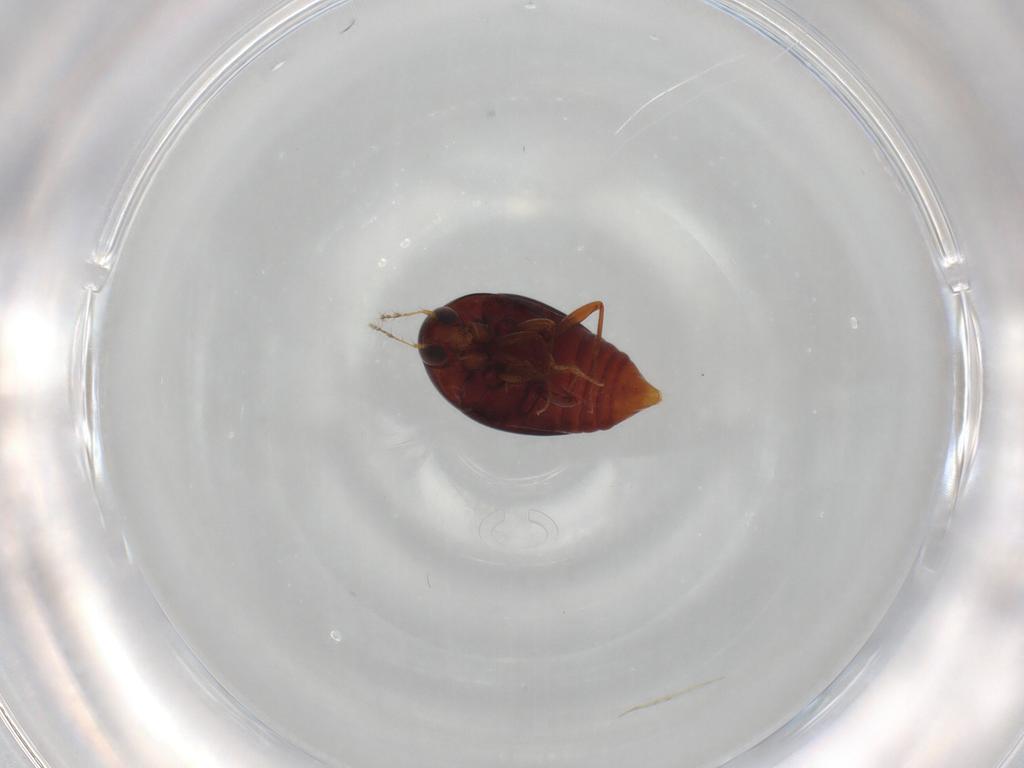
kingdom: Animalia
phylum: Arthropoda
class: Insecta
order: Coleoptera
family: Staphylinidae
